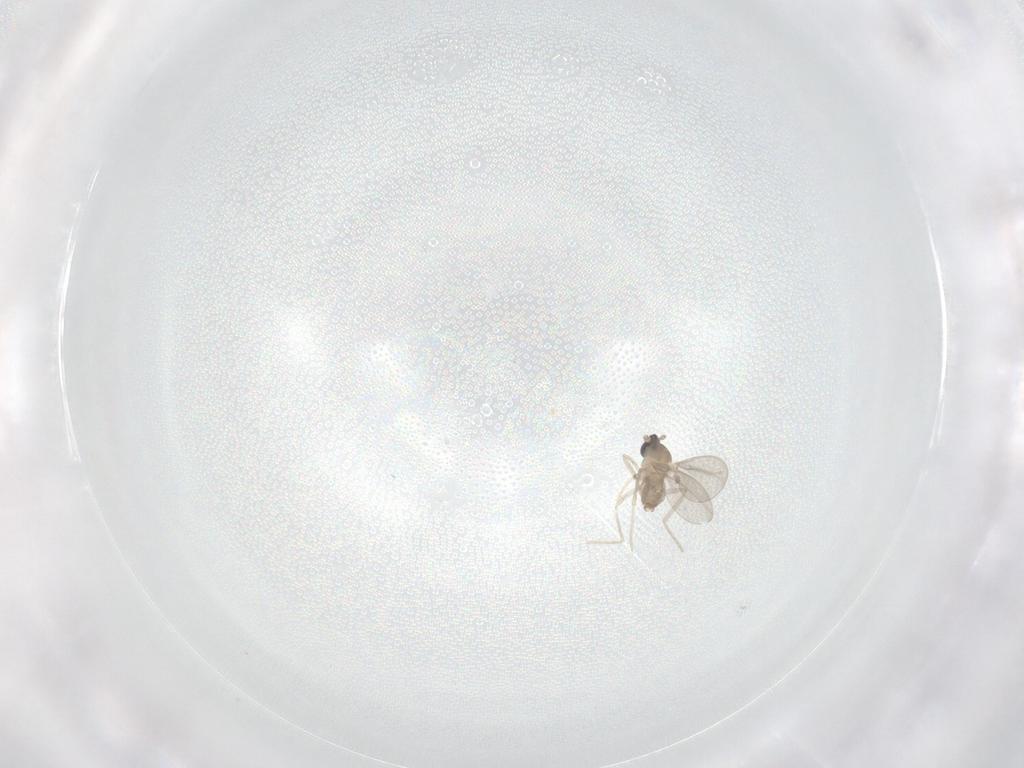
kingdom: Animalia
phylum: Arthropoda
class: Insecta
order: Diptera
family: Cecidomyiidae
